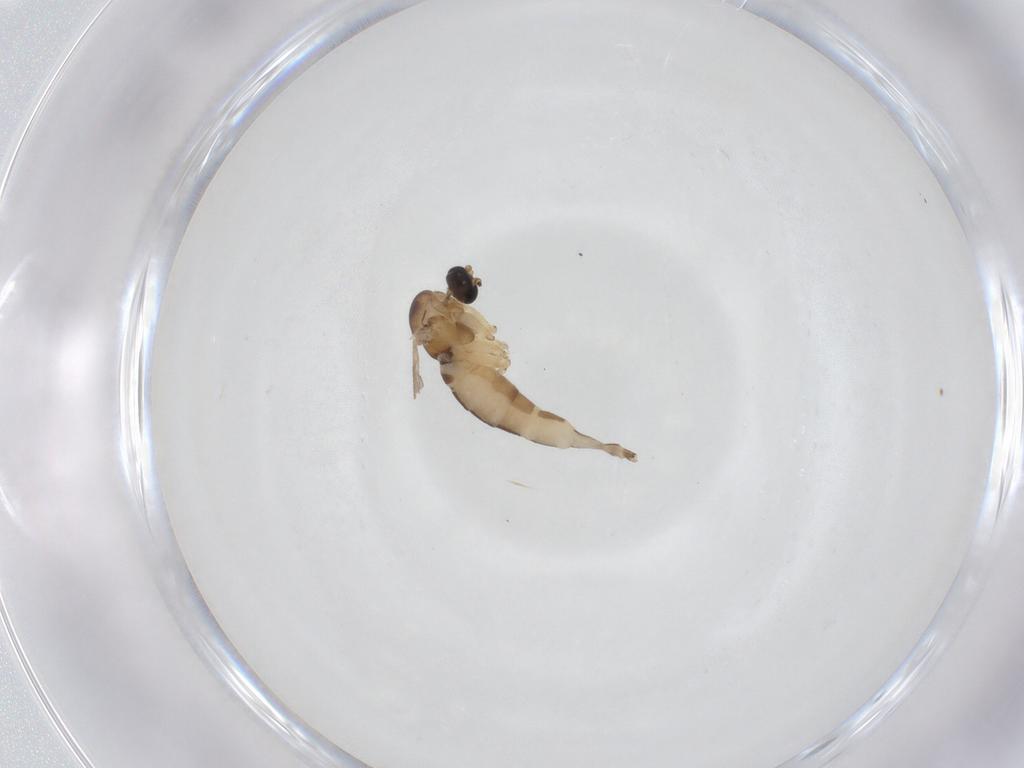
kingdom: Animalia
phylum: Arthropoda
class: Insecta
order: Diptera
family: Sciaridae
